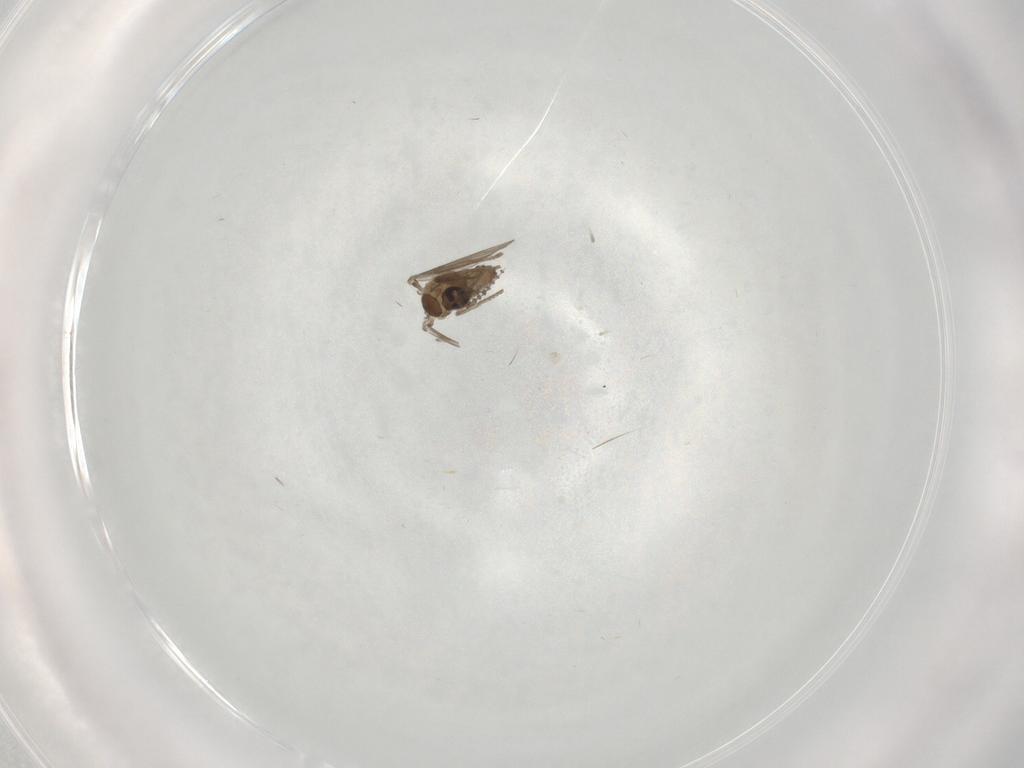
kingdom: Animalia
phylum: Arthropoda
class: Insecta
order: Diptera
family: Psychodidae
